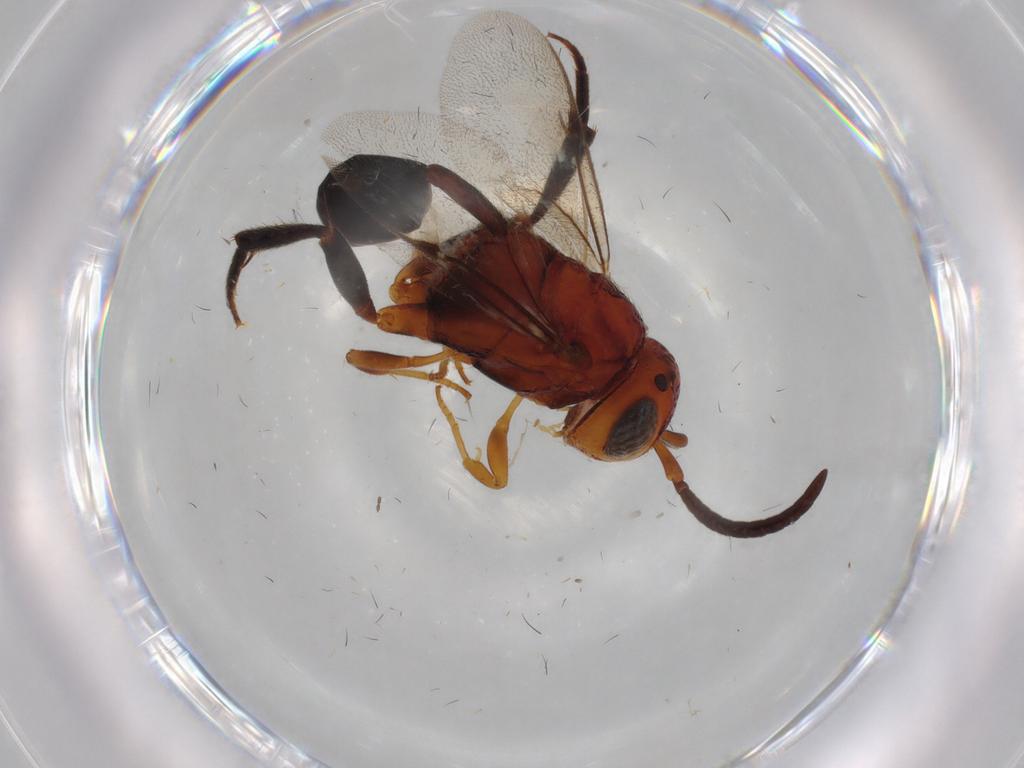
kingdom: Animalia
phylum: Arthropoda
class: Insecta
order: Hymenoptera
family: Evaniidae
